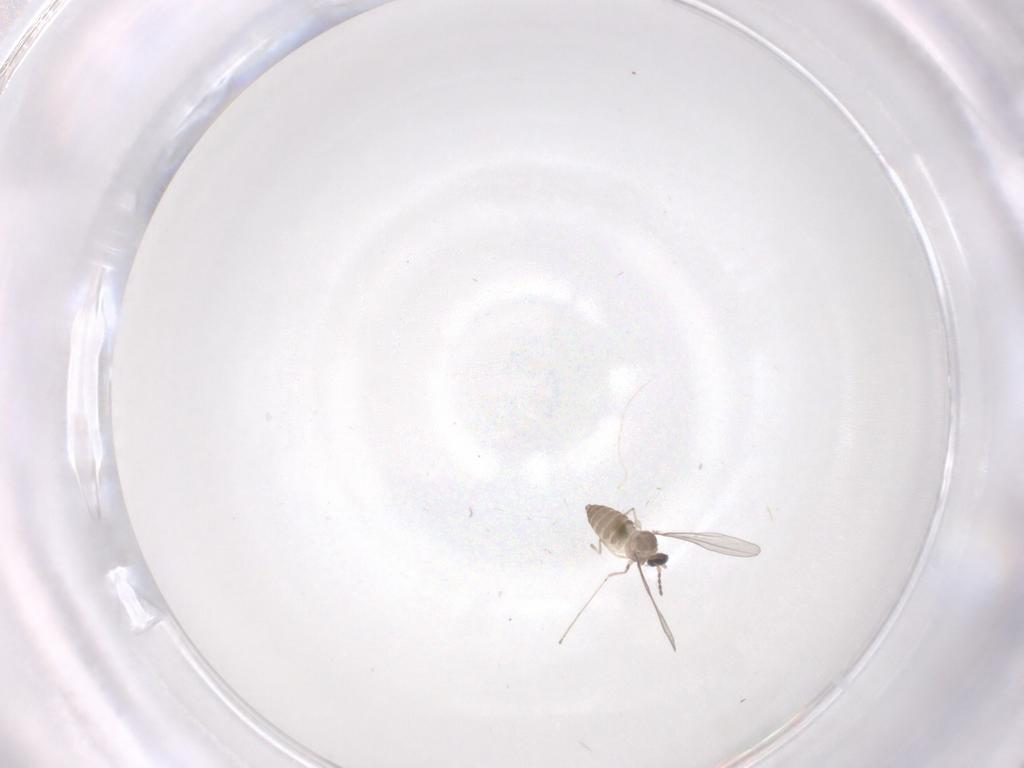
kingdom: Animalia
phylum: Arthropoda
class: Insecta
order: Diptera
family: Cecidomyiidae
